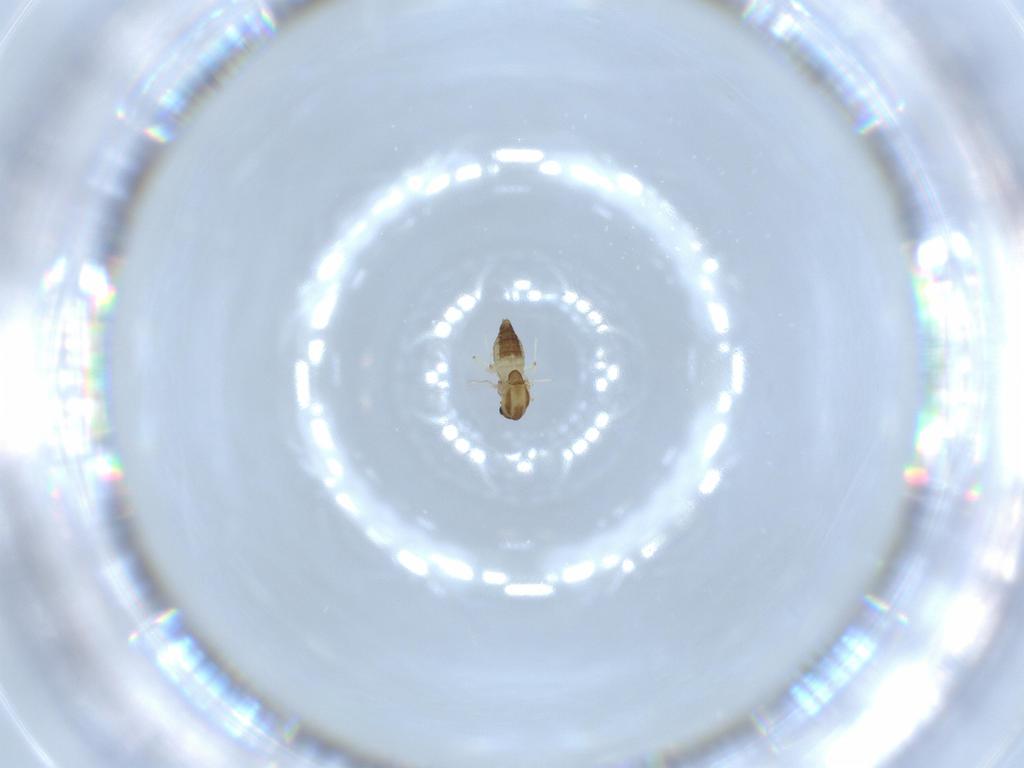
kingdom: Animalia
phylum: Arthropoda
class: Insecta
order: Diptera
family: Chironomidae
